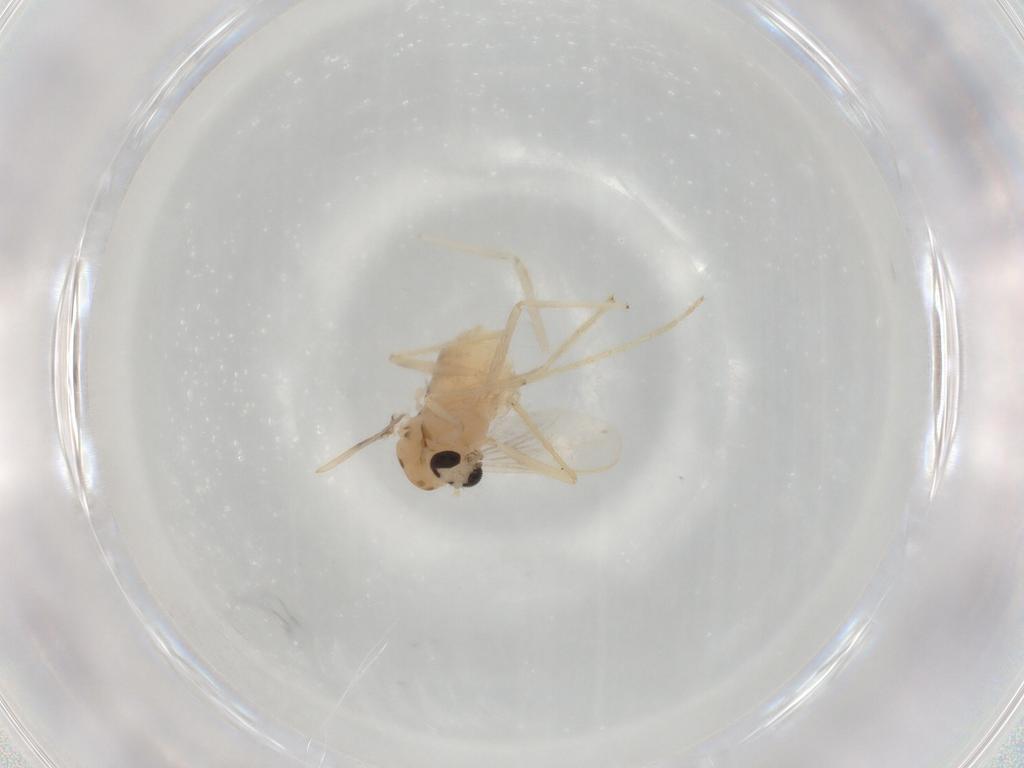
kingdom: Animalia
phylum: Arthropoda
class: Insecta
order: Diptera
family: Chironomidae
